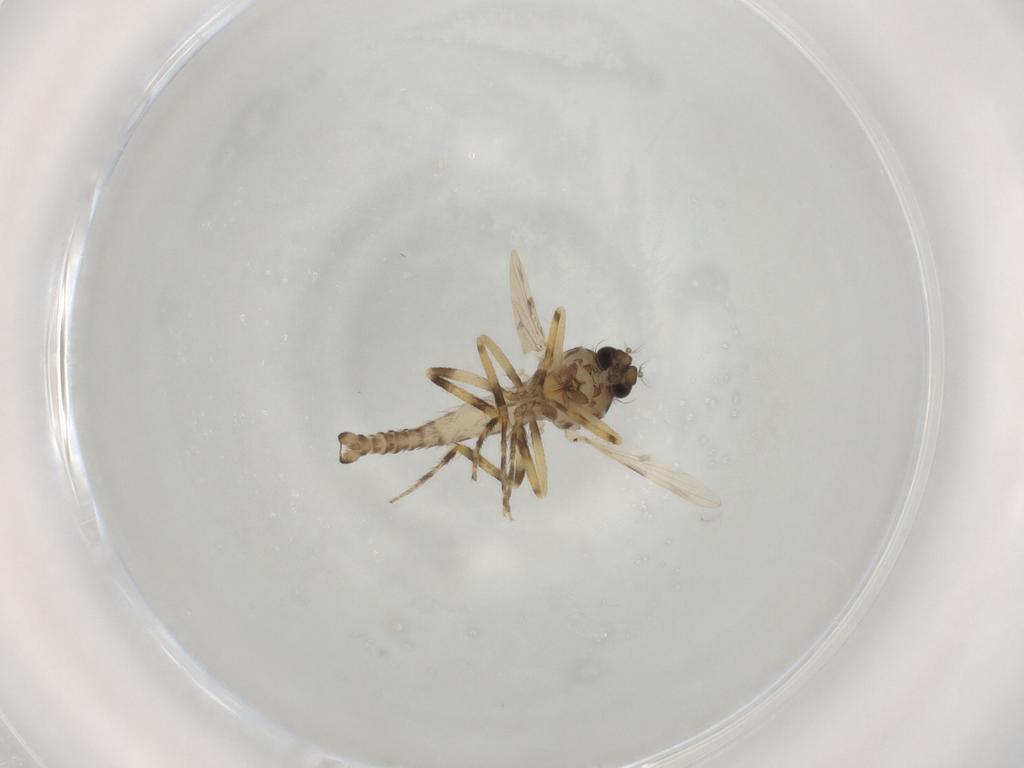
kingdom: Animalia
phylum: Arthropoda
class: Insecta
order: Diptera
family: Ceratopogonidae
